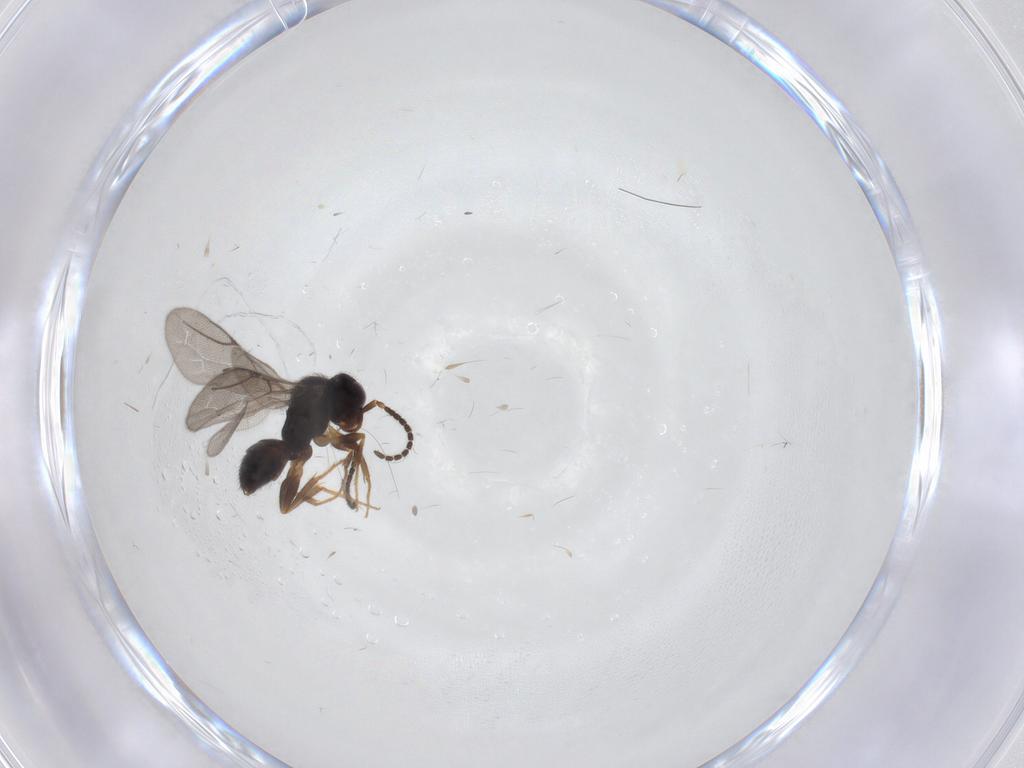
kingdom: Animalia
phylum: Arthropoda
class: Insecta
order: Hymenoptera
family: Bethylidae
